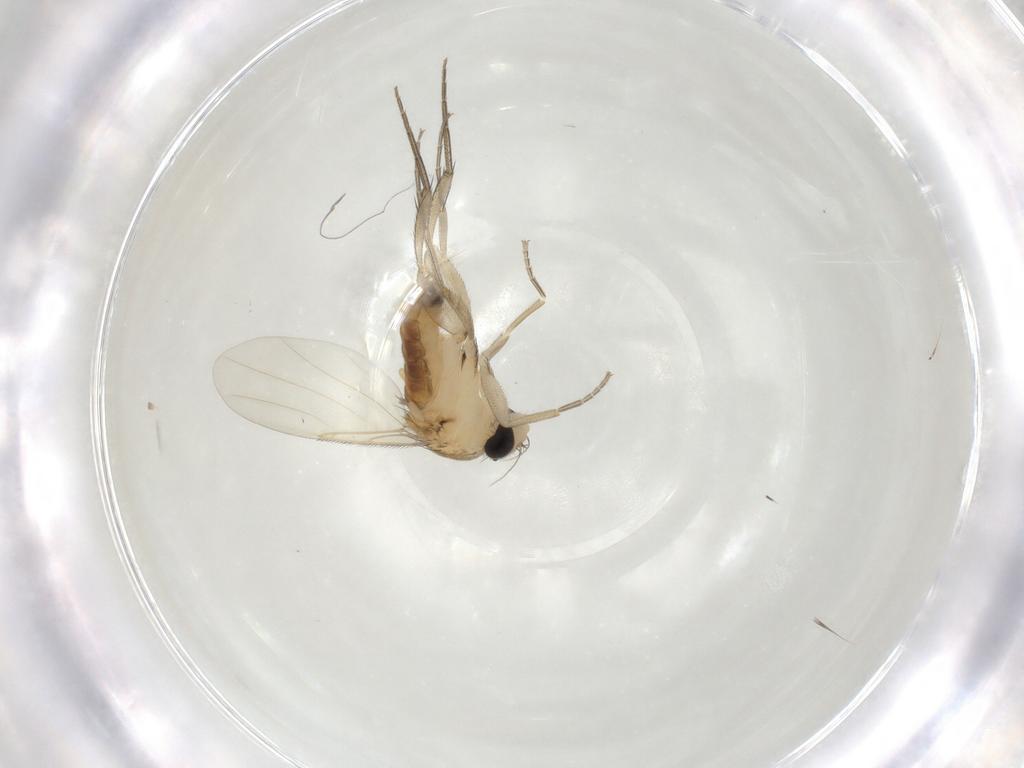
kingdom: Animalia
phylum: Arthropoda
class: Insecta
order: Diptera
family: Phoridae
